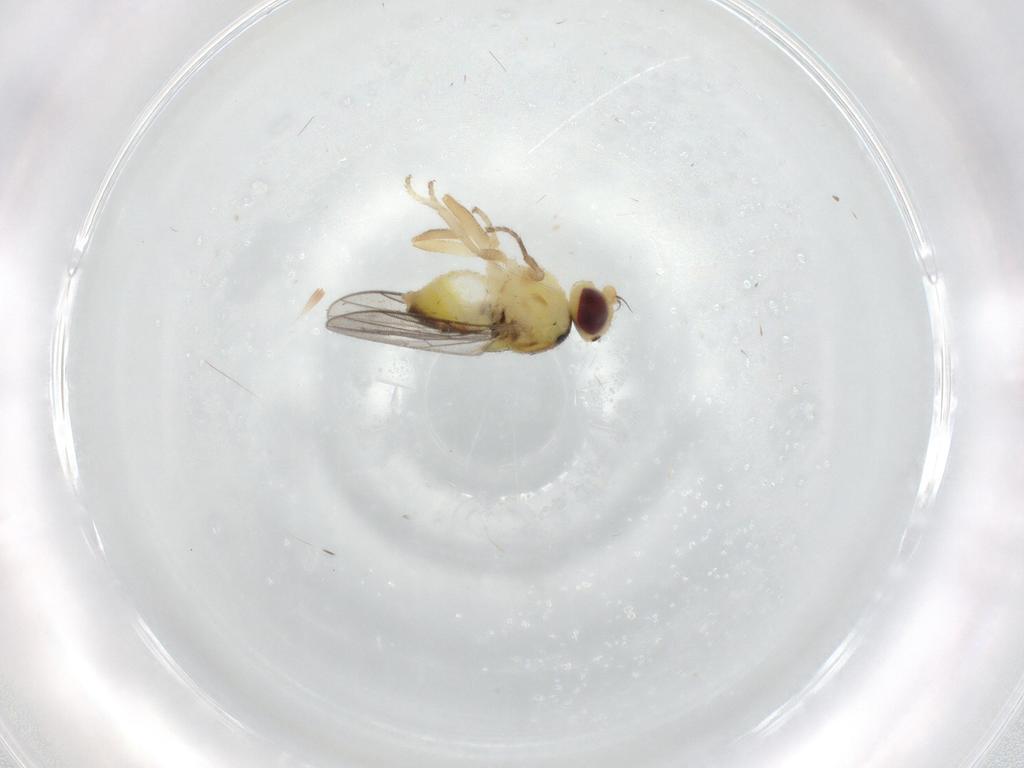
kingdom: Animalia
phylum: Arthropoda
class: Insecta
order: Diptera
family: Chloropidae
